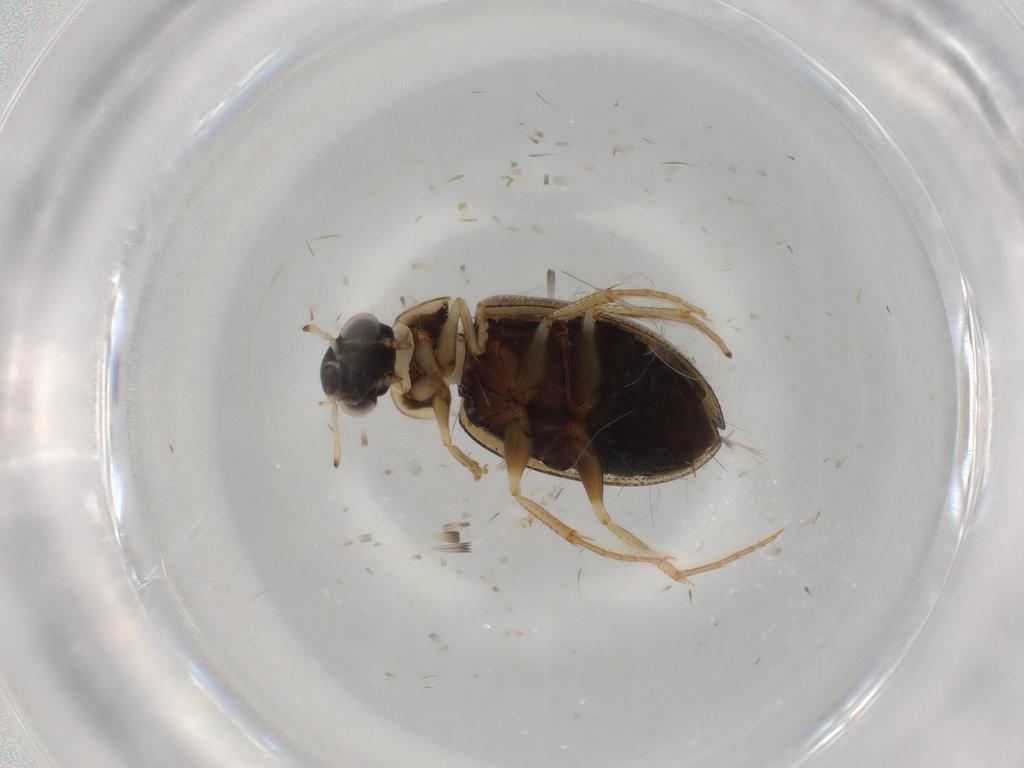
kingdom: Animalia
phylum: Arthropoda
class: Insecta
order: Coleoptera
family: Hydrophilidae
